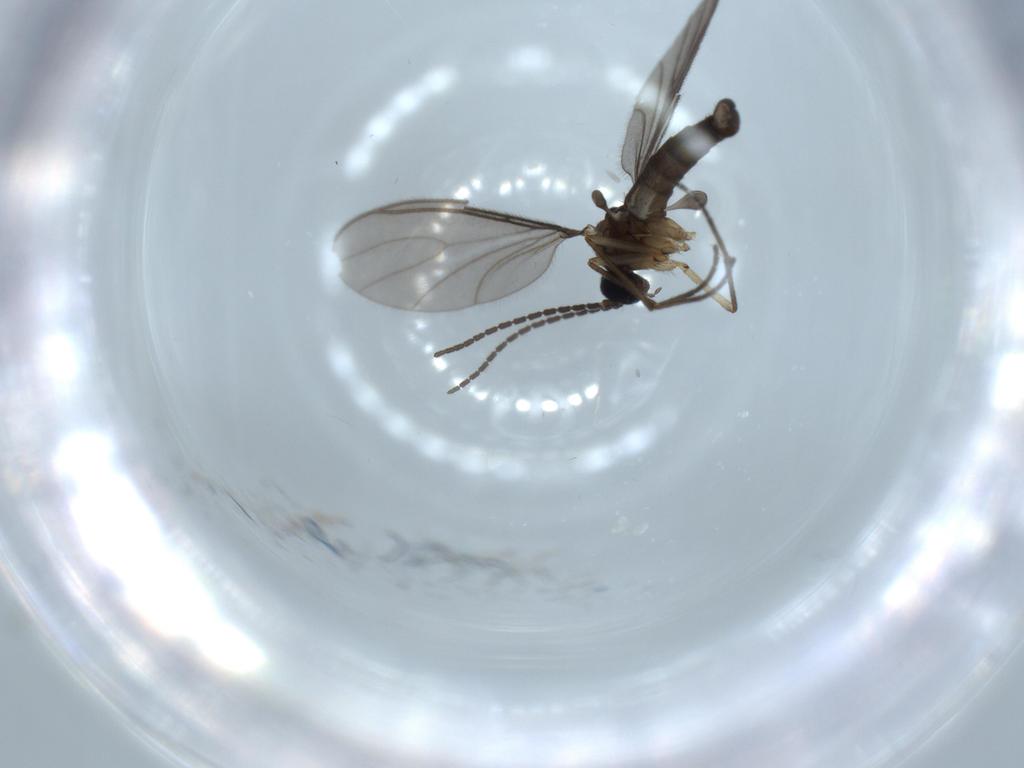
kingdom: Animalia
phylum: Arthropoda
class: Insecta
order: Diptera
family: Sciaridae
